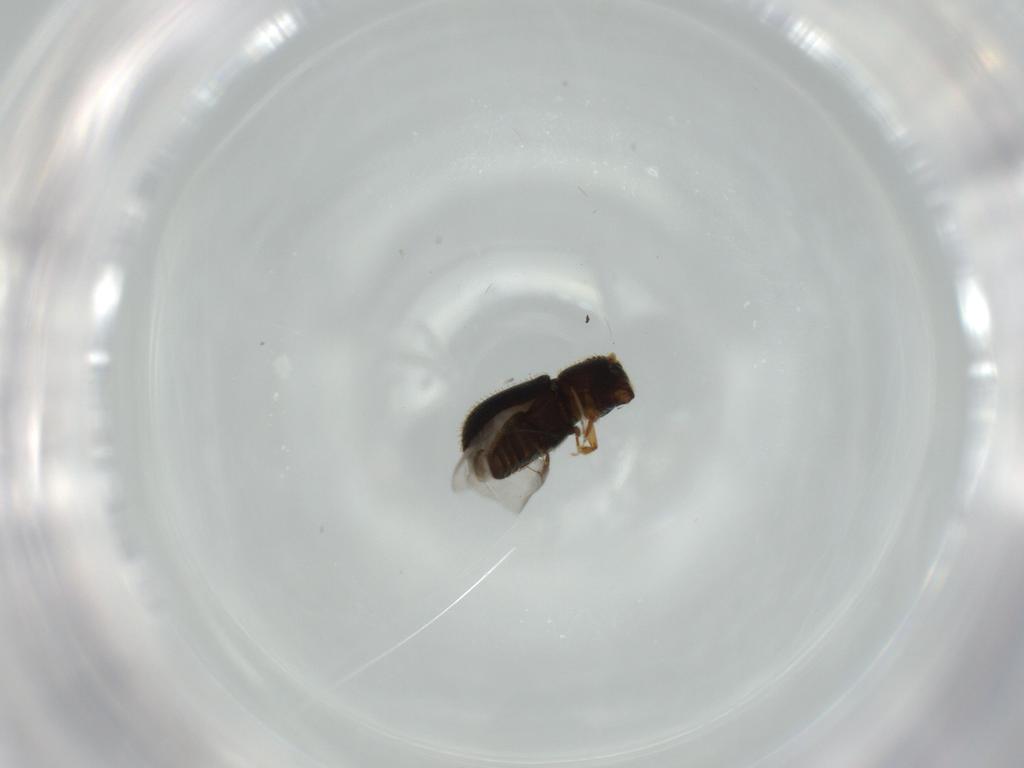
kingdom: Animalia
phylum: Arthropoda
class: Insecta
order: Coleoptera
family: Curculionidae
